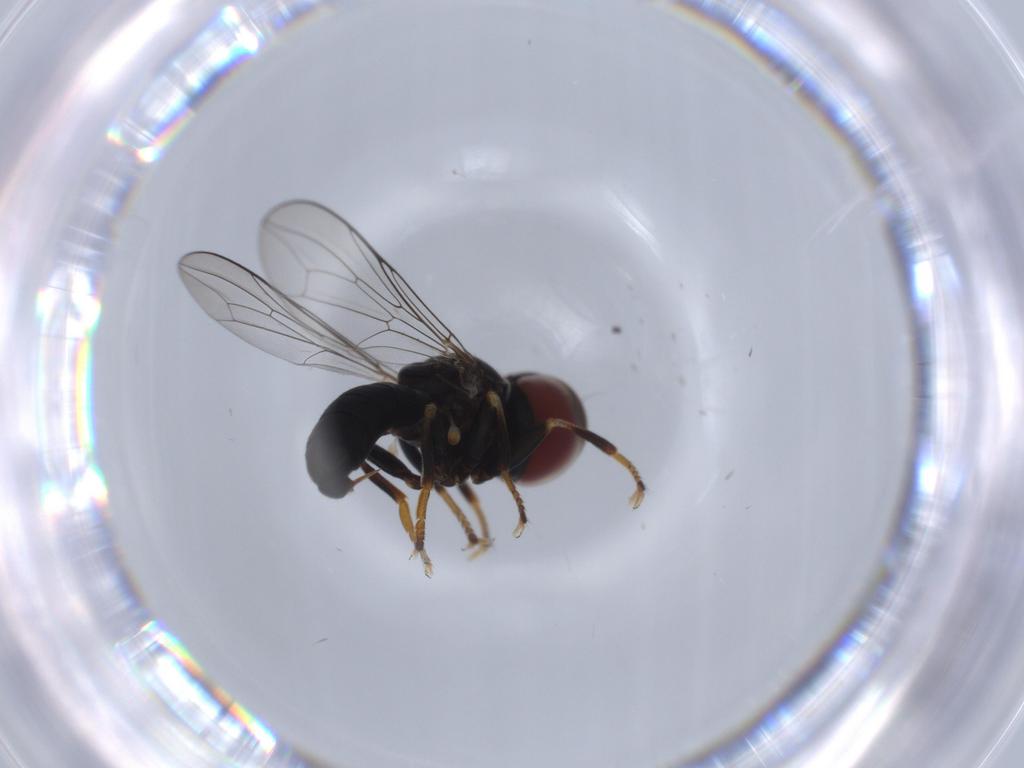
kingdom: Animalia
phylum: Arthropoda
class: Insecta
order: Diptera
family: Pipunculidae
